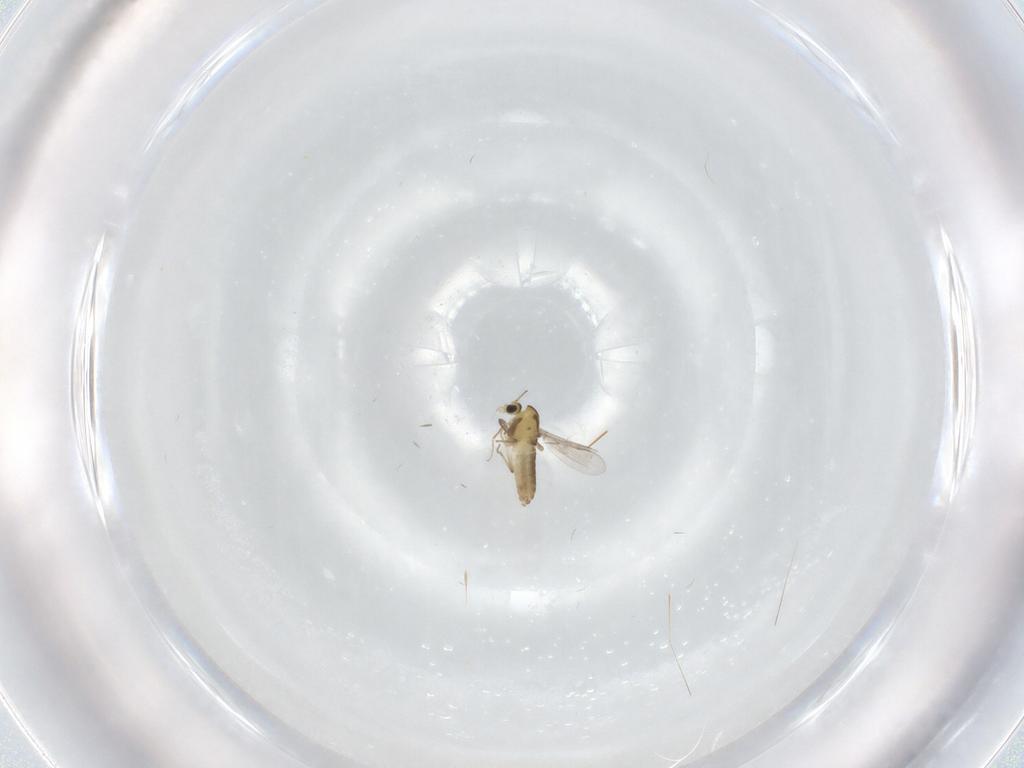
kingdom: Animalia
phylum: Arthropoda
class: Insecta
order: Diptera
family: Chironomidae
